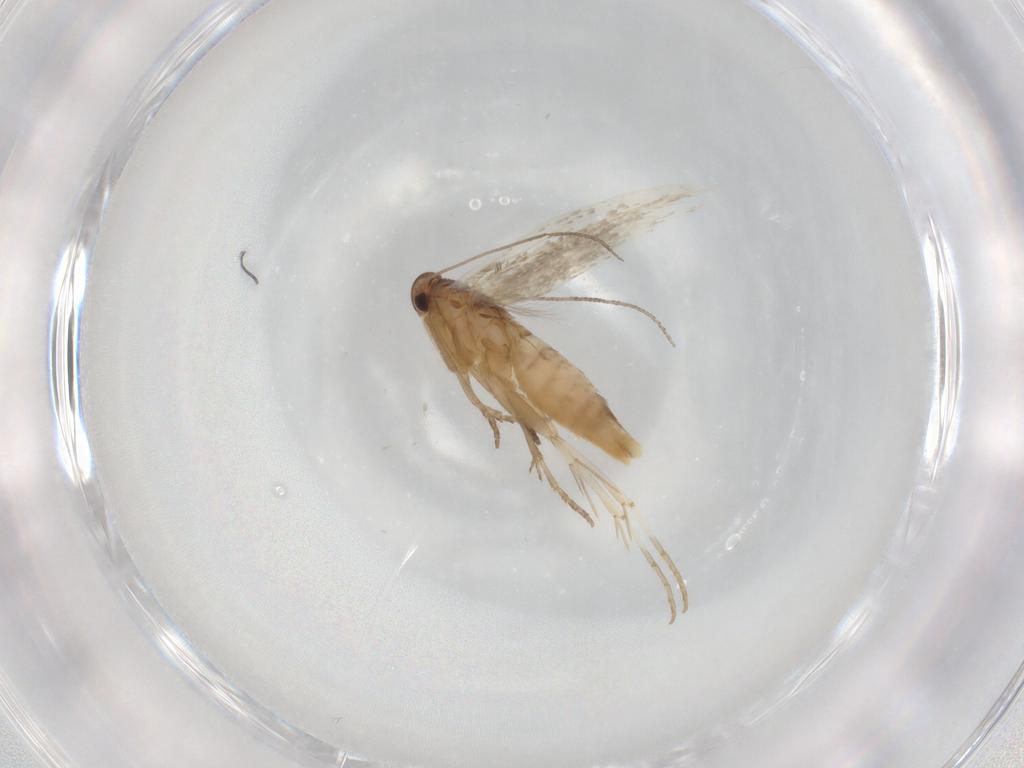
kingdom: Animalia
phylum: Arthropoda
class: Insecta
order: Lepidoptera
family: Elachistidae
